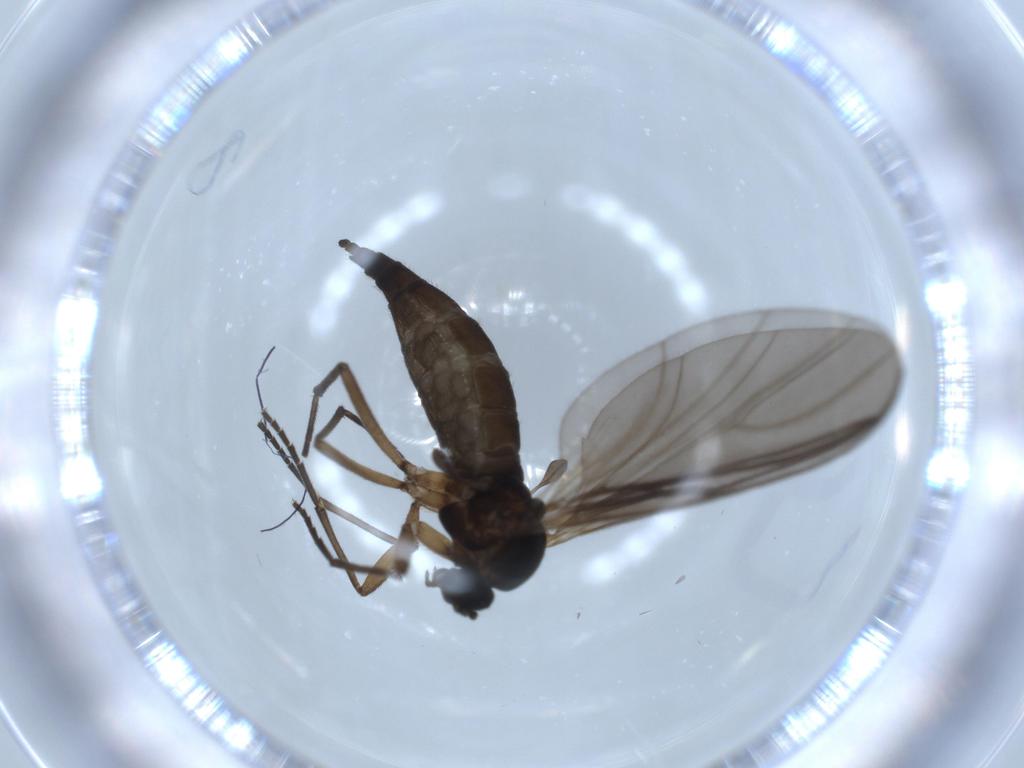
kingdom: Animalia
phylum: Arthropoda
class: Insecta
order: Diptera
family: Sciaridae
